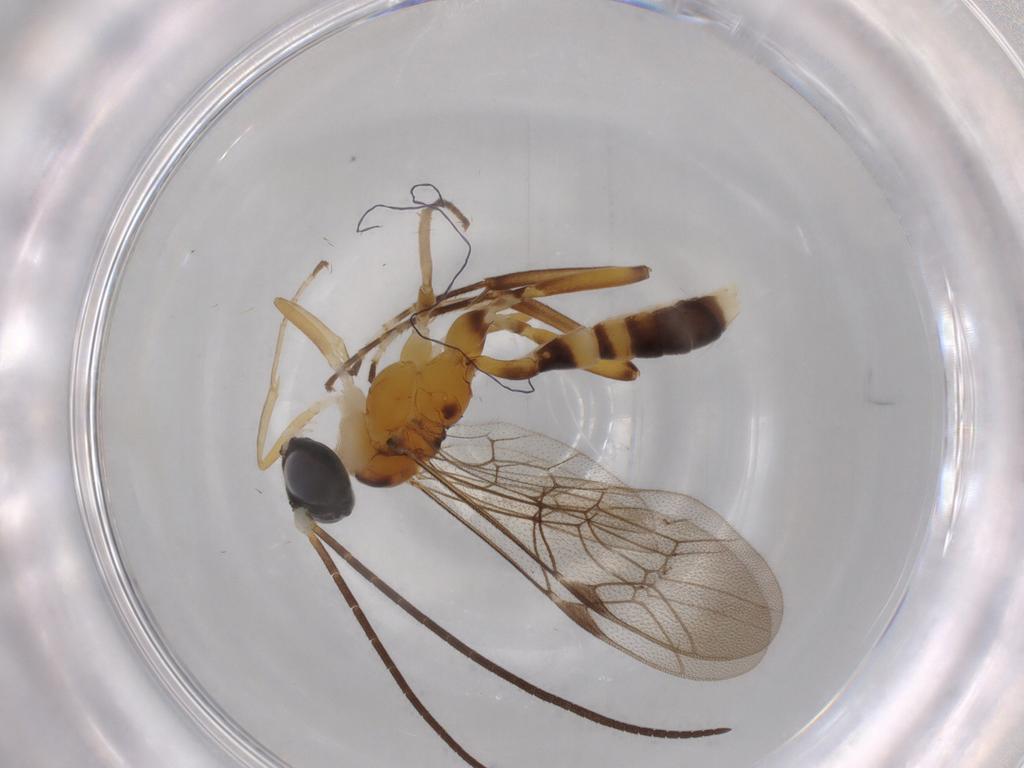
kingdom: Animalia
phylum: Arthropoda
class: Insecta
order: Hymenoptera
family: Ichneumonidae
